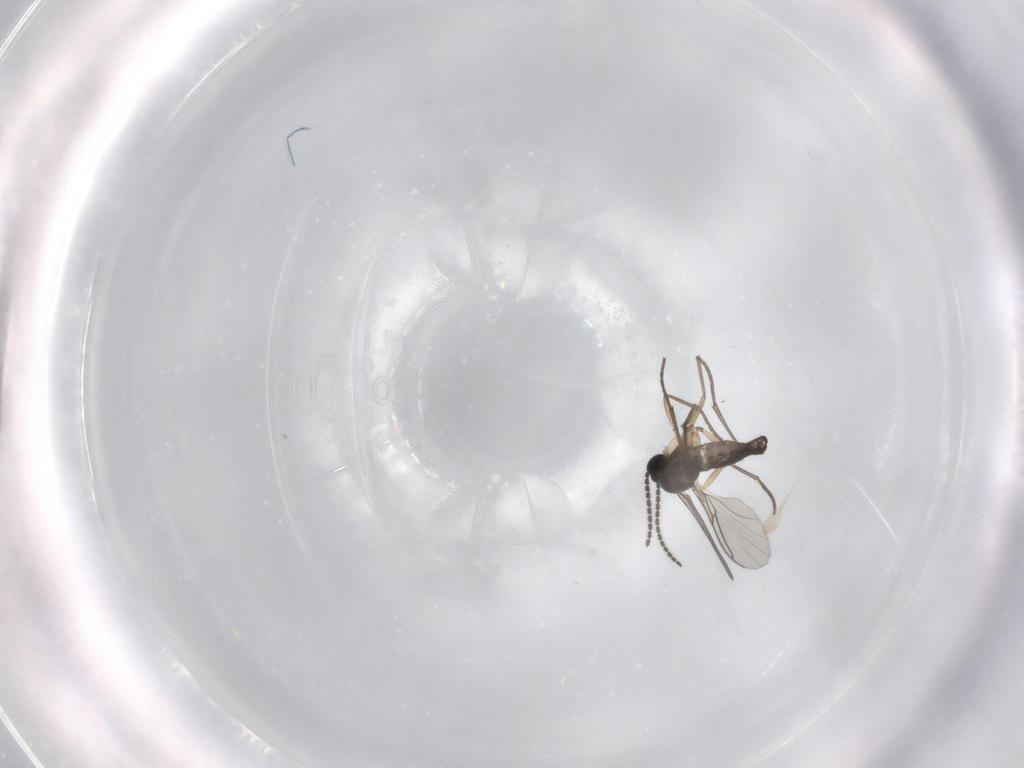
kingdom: Animalia
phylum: Arthropoda
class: Insecta
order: Diptera
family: Sciaridae
